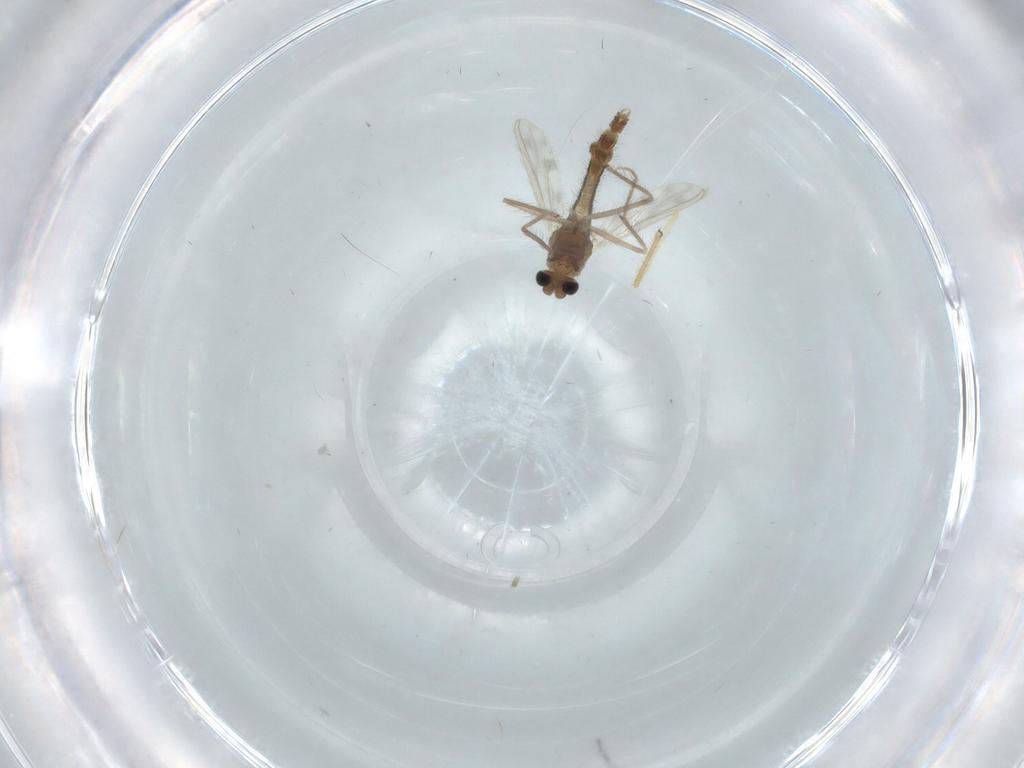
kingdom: Animalia
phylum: Arthropoda
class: Insecta
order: Diptera
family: Chironomidae
